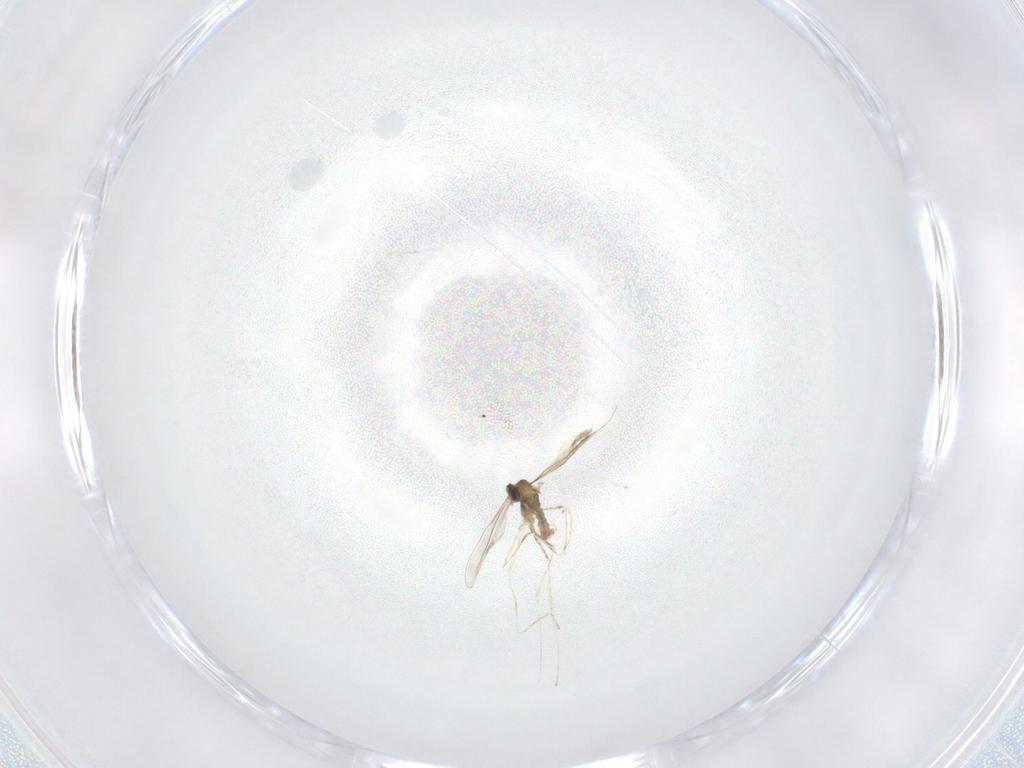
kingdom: Animalia
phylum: Arthropoda
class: Insecta
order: Diptera
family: Cecidomyiidae
